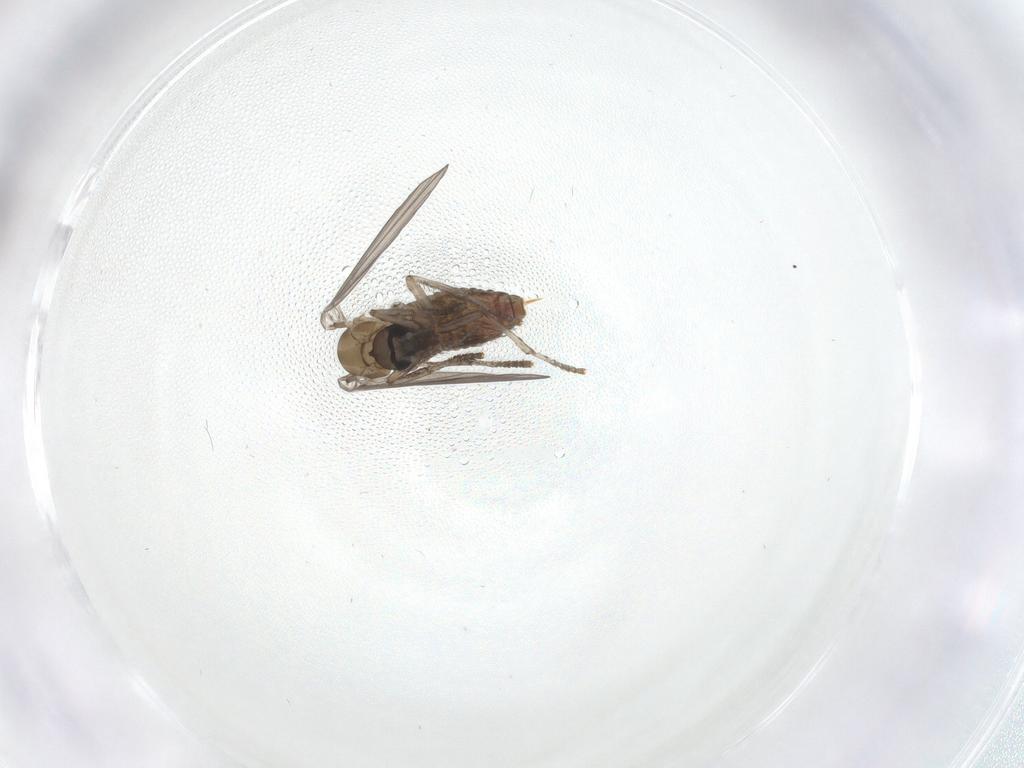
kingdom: Animalia
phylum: Arthropoda
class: Insecta
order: Diptera
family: Psychodidae
